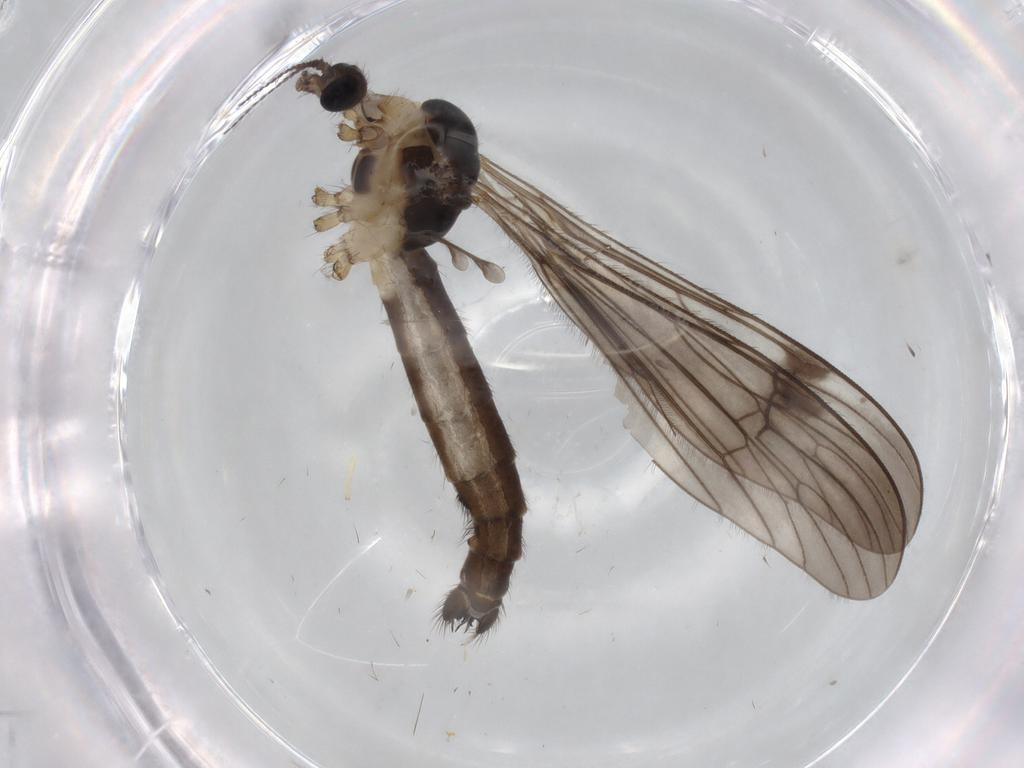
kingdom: Animalia
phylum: Arthropoda
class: Insecta
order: Diptera
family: Limoniidae
